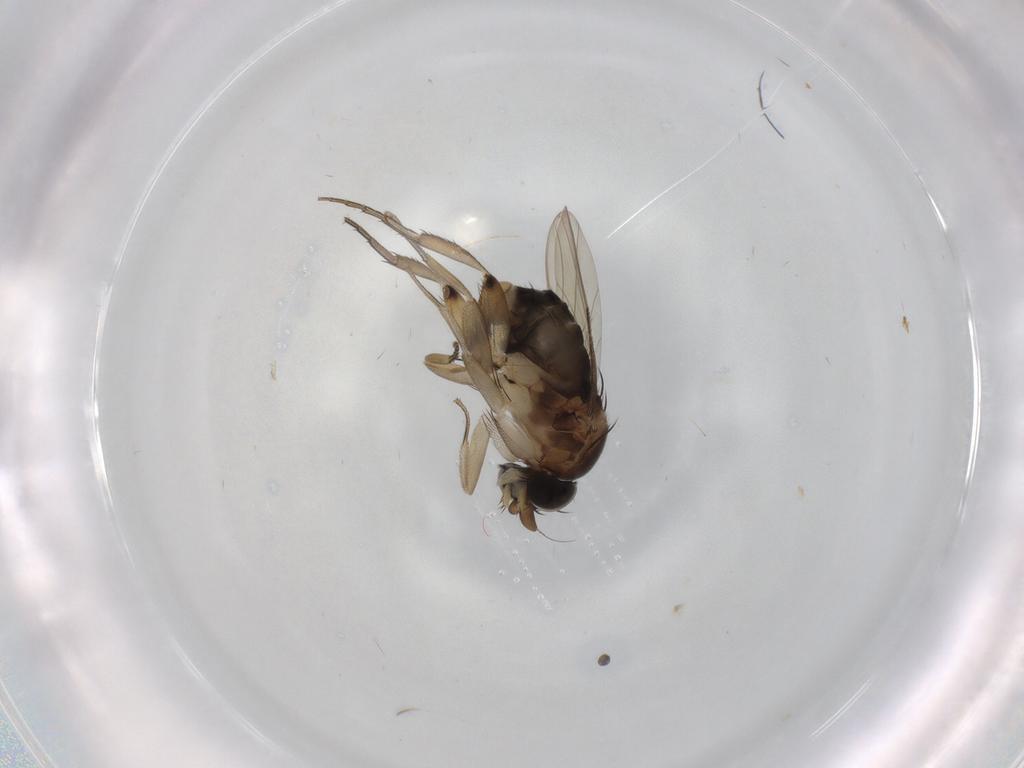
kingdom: Animalia
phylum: Arthropoda
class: Insecta
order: Diptera
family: Phoridae
